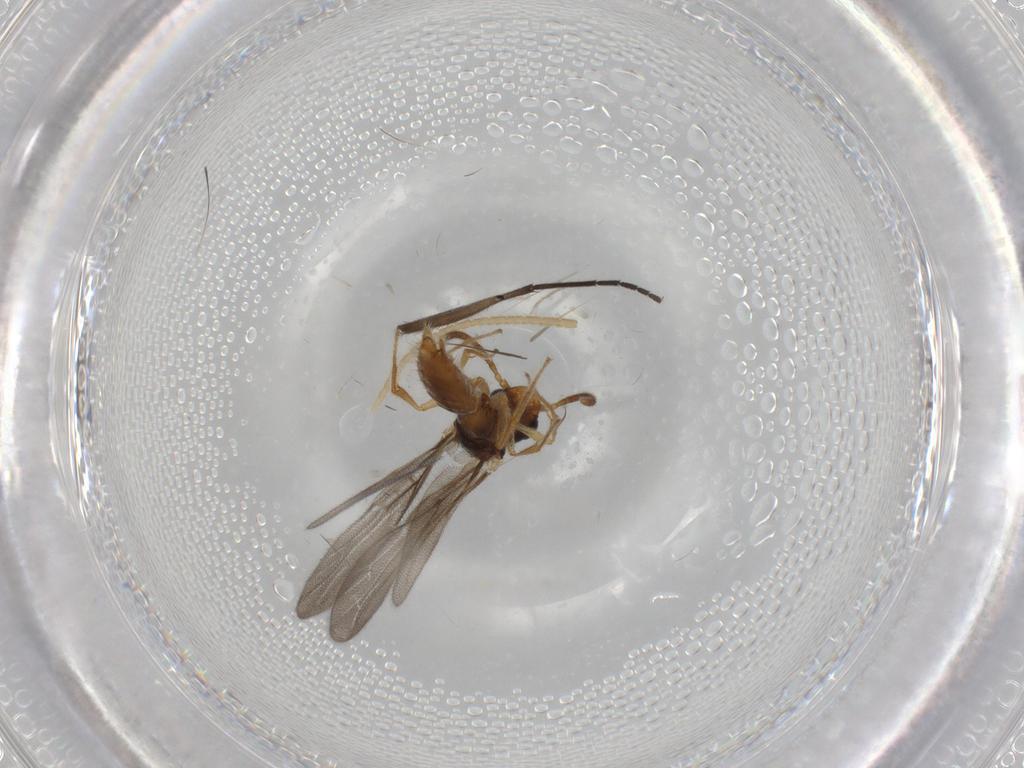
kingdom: Animalia
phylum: Arthropoda
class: Insecta
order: Hymenoptera
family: Bethylidae
